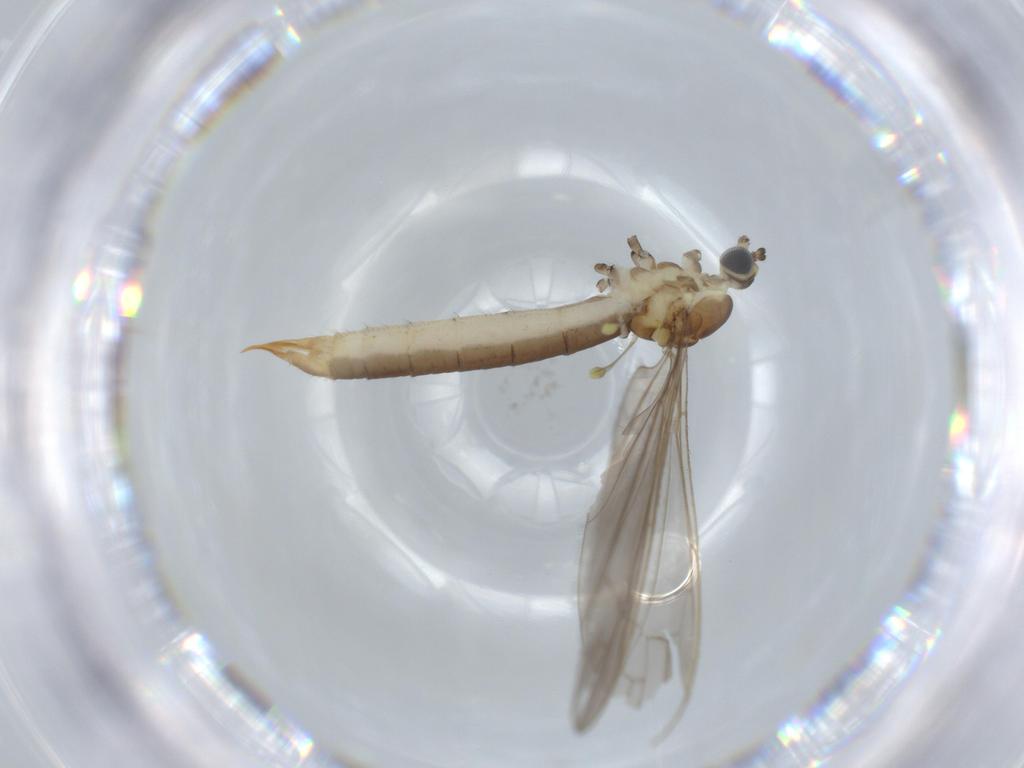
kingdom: Animalia
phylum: Arthropoda
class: Insecta
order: Diptera
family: Limoniidae
